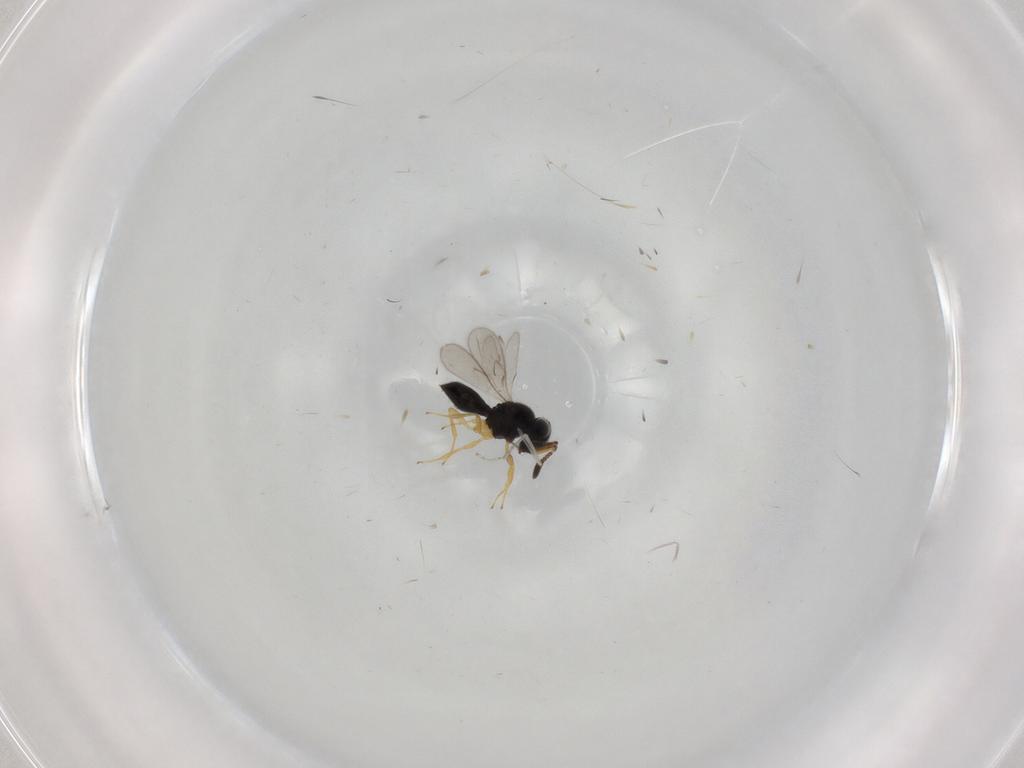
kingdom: Animalia
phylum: Arthropoda
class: Insecta
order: Hymenoptera
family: Scelionidae
